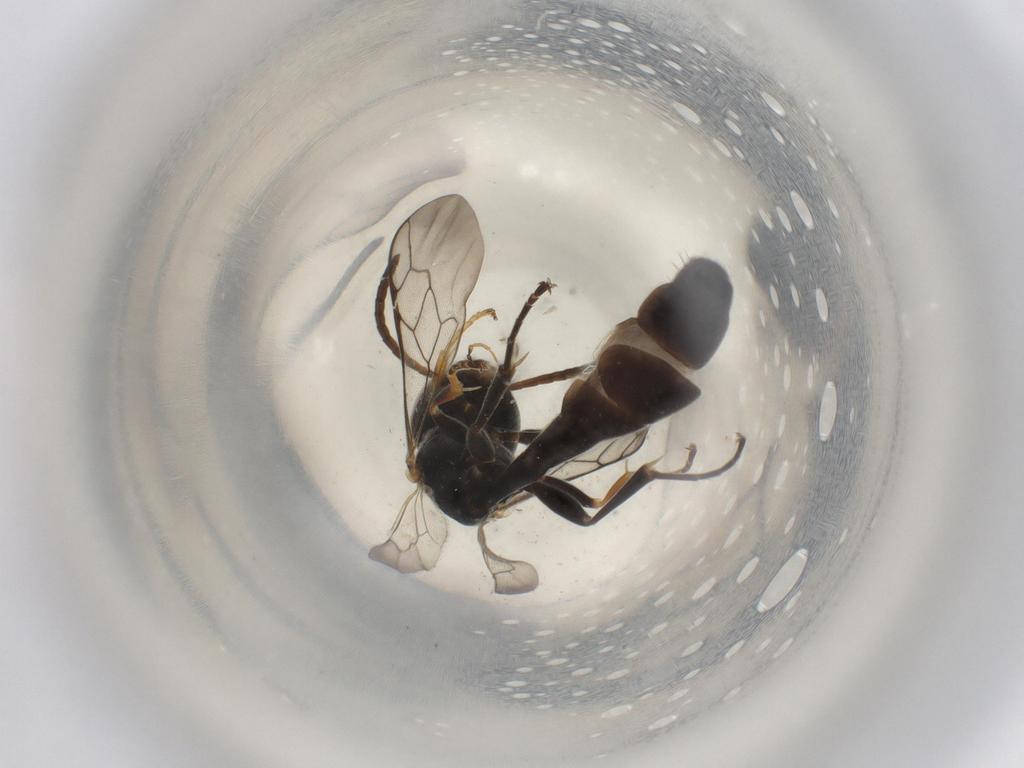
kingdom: Animalia
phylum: Arthropoda
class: Insecta
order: Hymenoptera
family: Crabronidae
